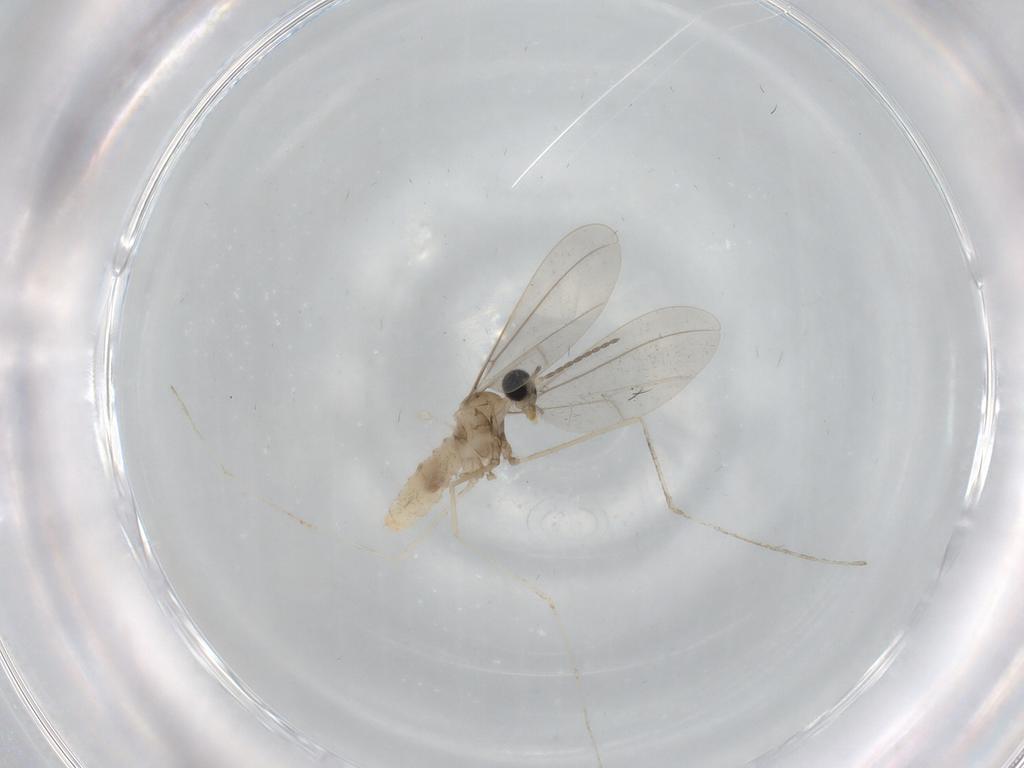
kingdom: Animalia
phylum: Arthropoda
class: Insecta
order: Diptera
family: Cecidomyiidae
